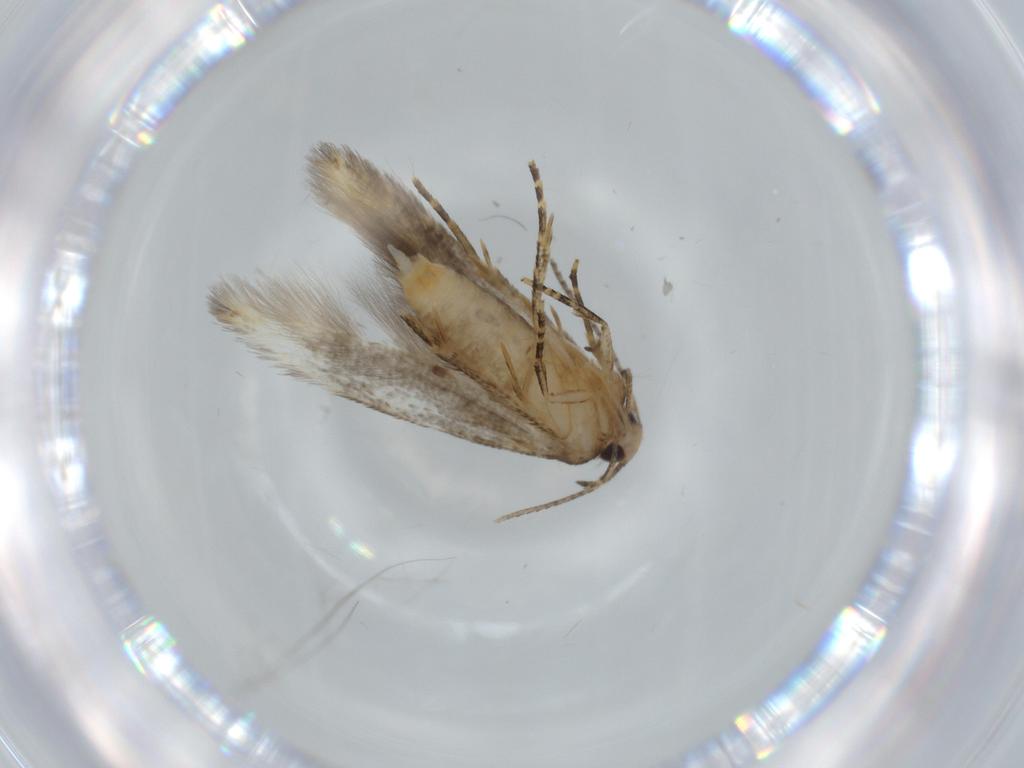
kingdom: Animalia
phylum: Arthropoda
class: Insecta
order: Lepidoptera
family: Stathmopodidae
